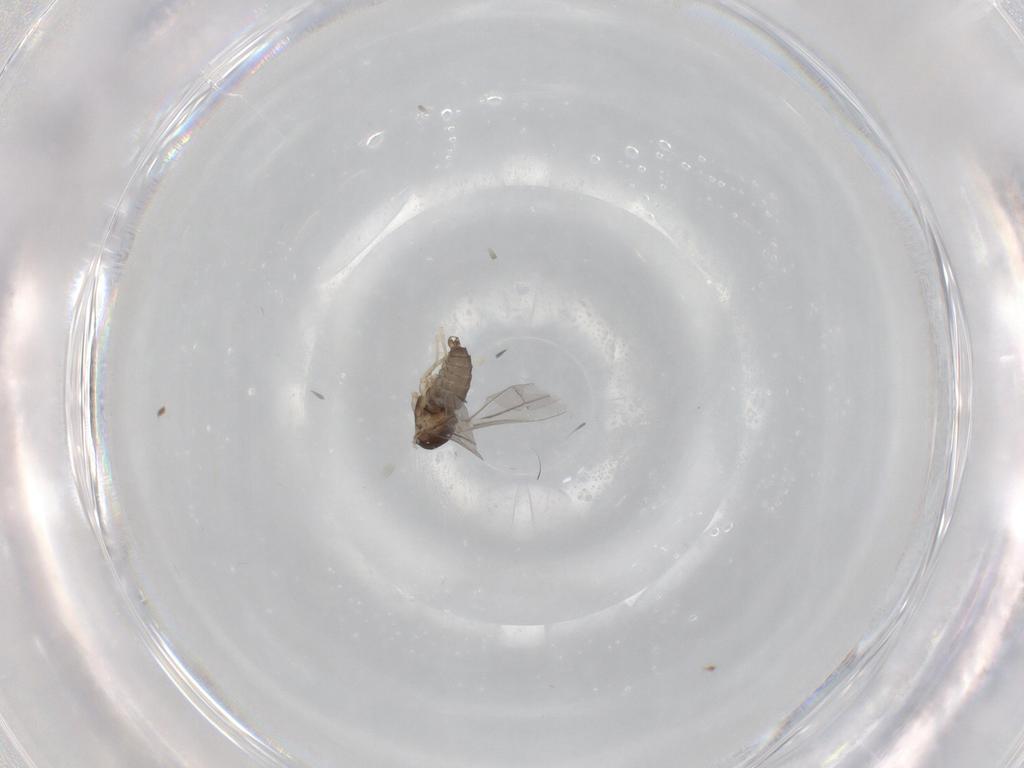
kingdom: Animalia
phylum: Arthropoda
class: Insecta
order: Diptera
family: Cecidomyiidae
